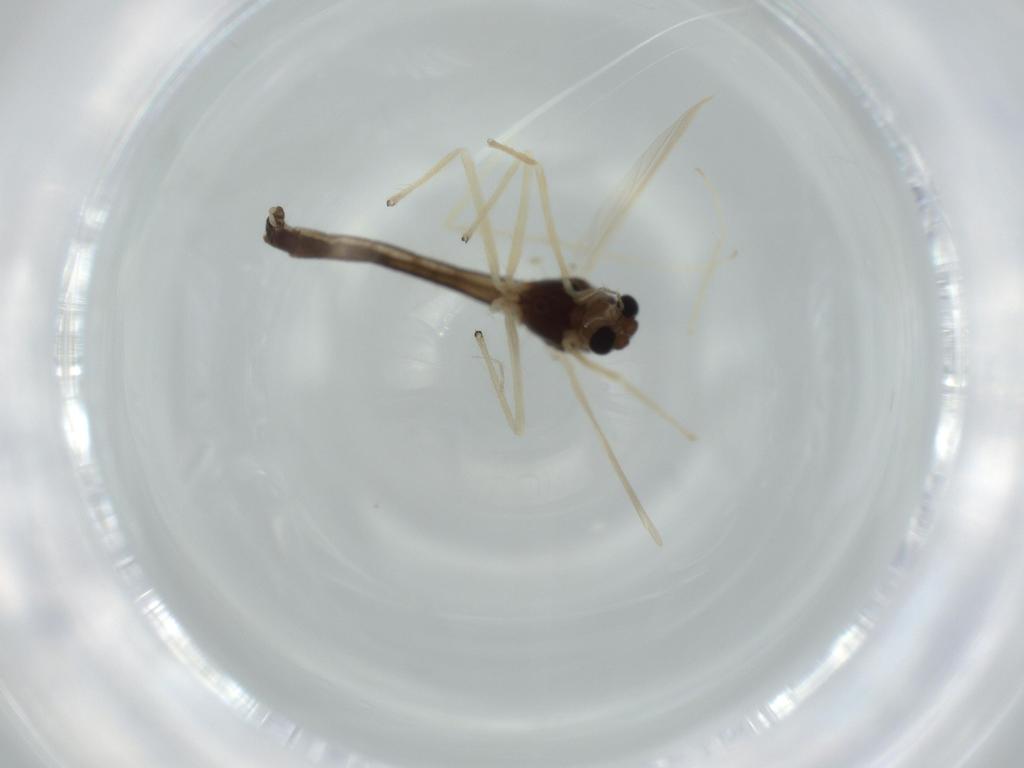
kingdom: Animalia
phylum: Arthropoda
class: Insecta
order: Diptera
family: Chironomidae
